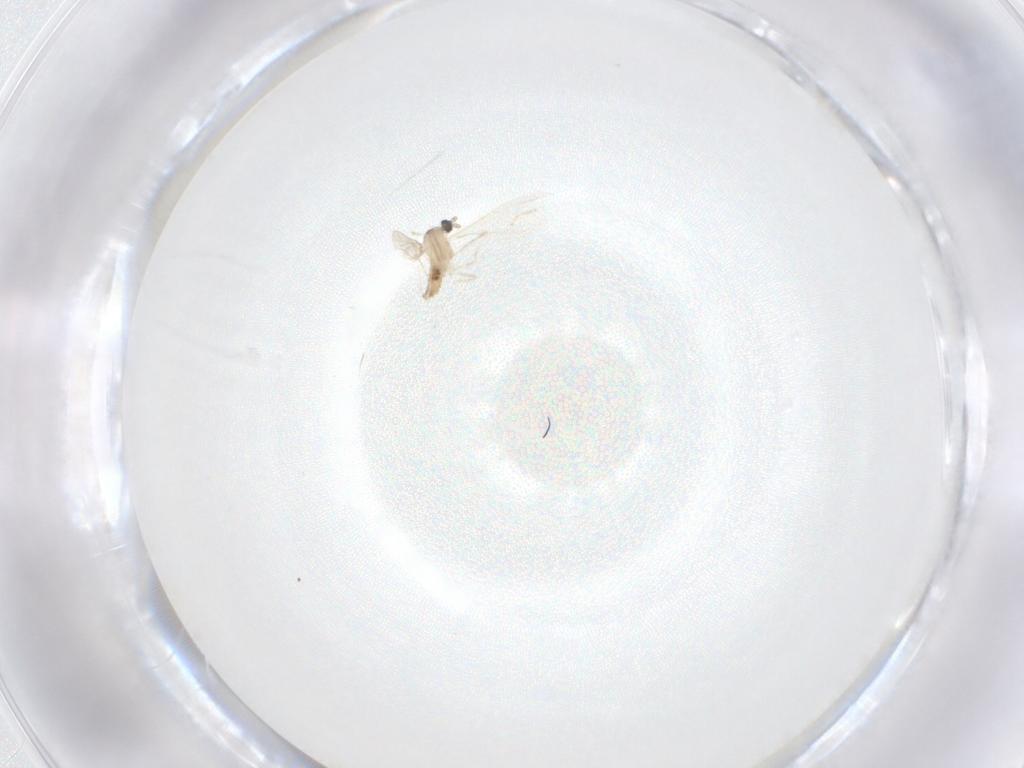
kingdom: Animalia
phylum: Arthropoda
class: Insecta
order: Diptera
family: Cecidomyiidae
